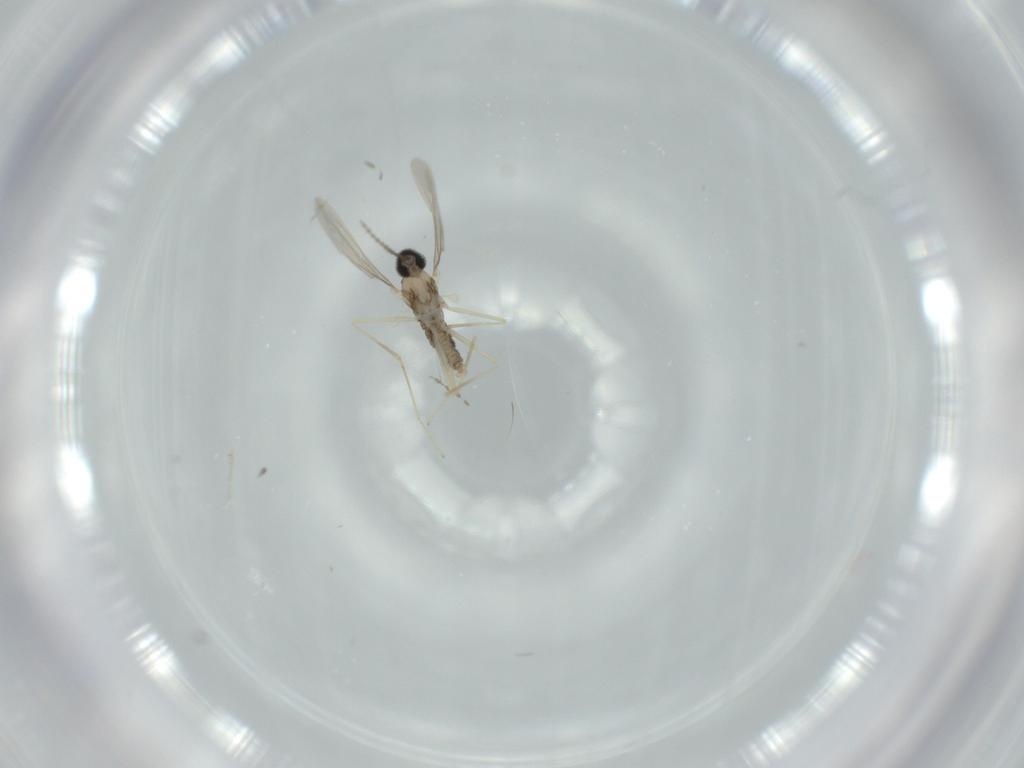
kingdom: Animalia
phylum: Arthropoda
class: Insecta
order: Diptera
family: Cecidomyiidae
